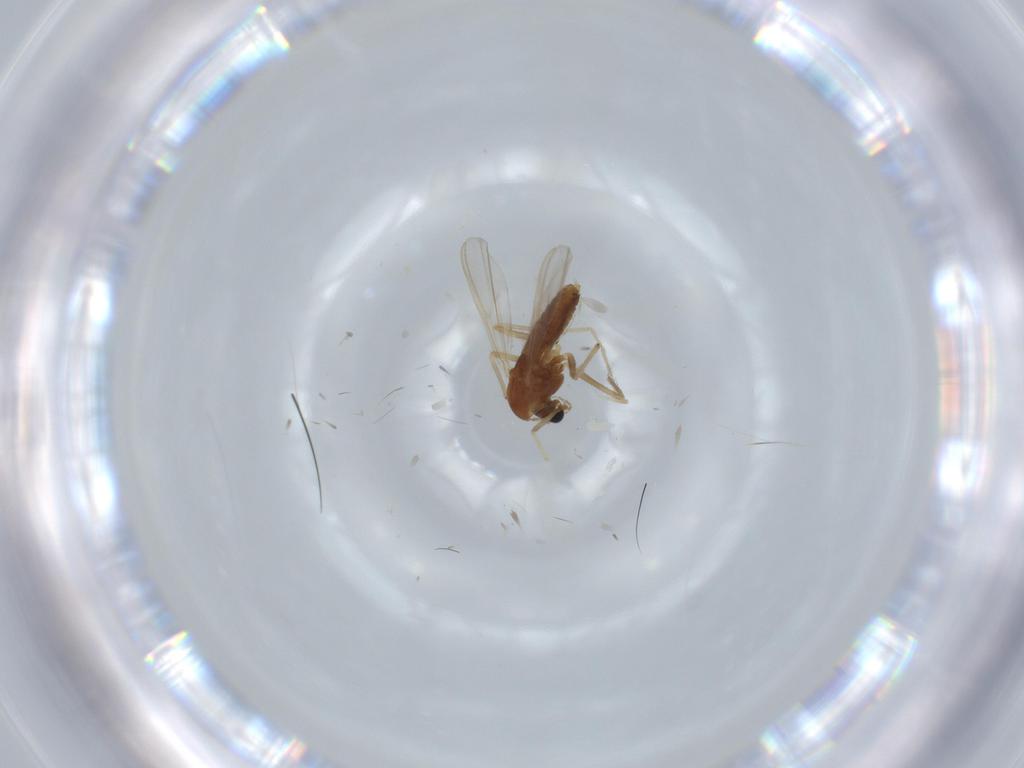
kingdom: Animalia
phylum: Arthropoda
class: Insecta
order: Diptera
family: Chironomidae
